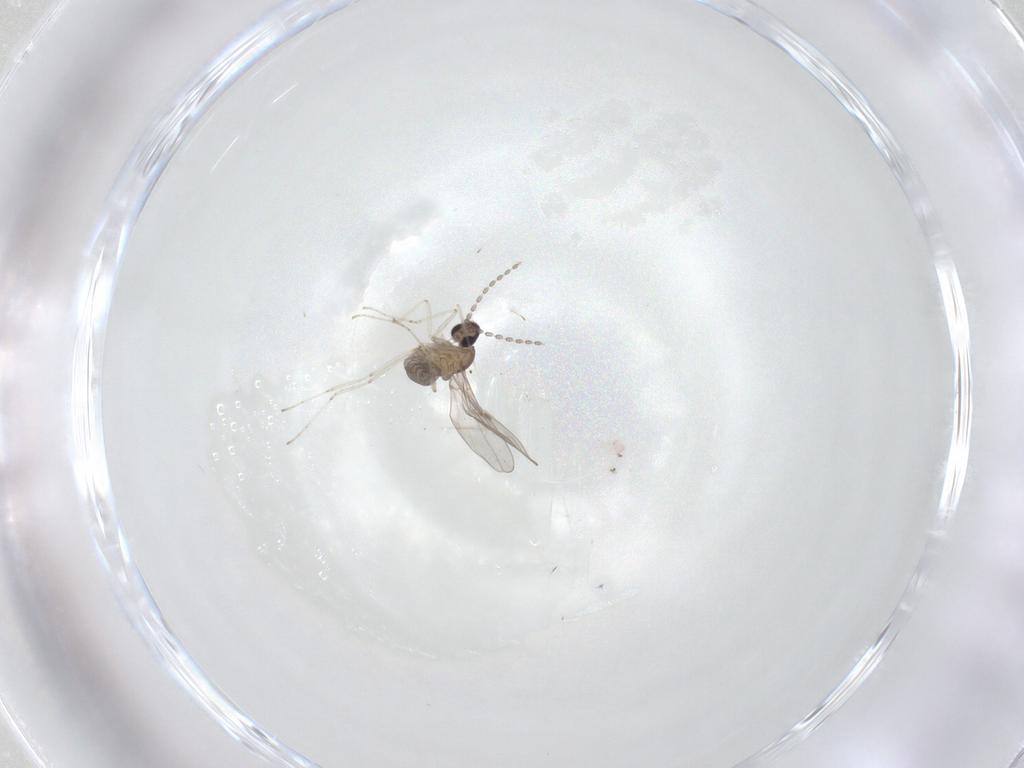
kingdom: Animalia
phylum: Arthropoda
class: Insecta
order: Diptera
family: Cecidomyiidae
